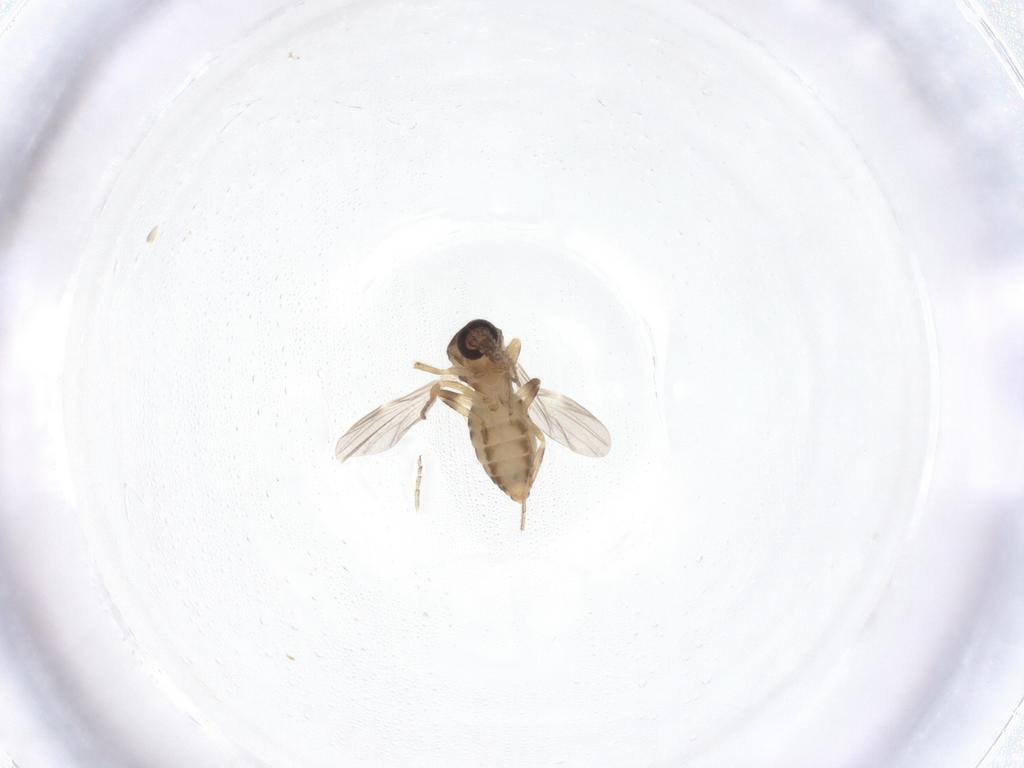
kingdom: Animalia
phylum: Arthropoda
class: Insecta
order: Diptera
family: Ceratopogonidae
